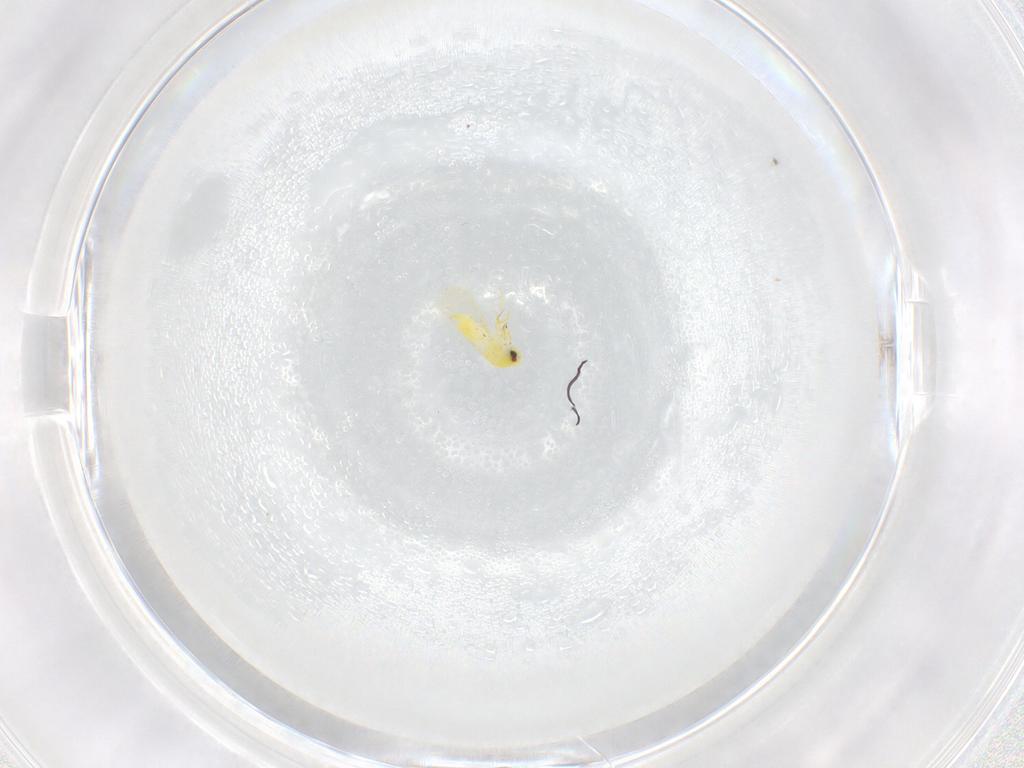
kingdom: Animalia
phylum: Arthropoda
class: Insecta
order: Hemiptera
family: Aleyrodidae
